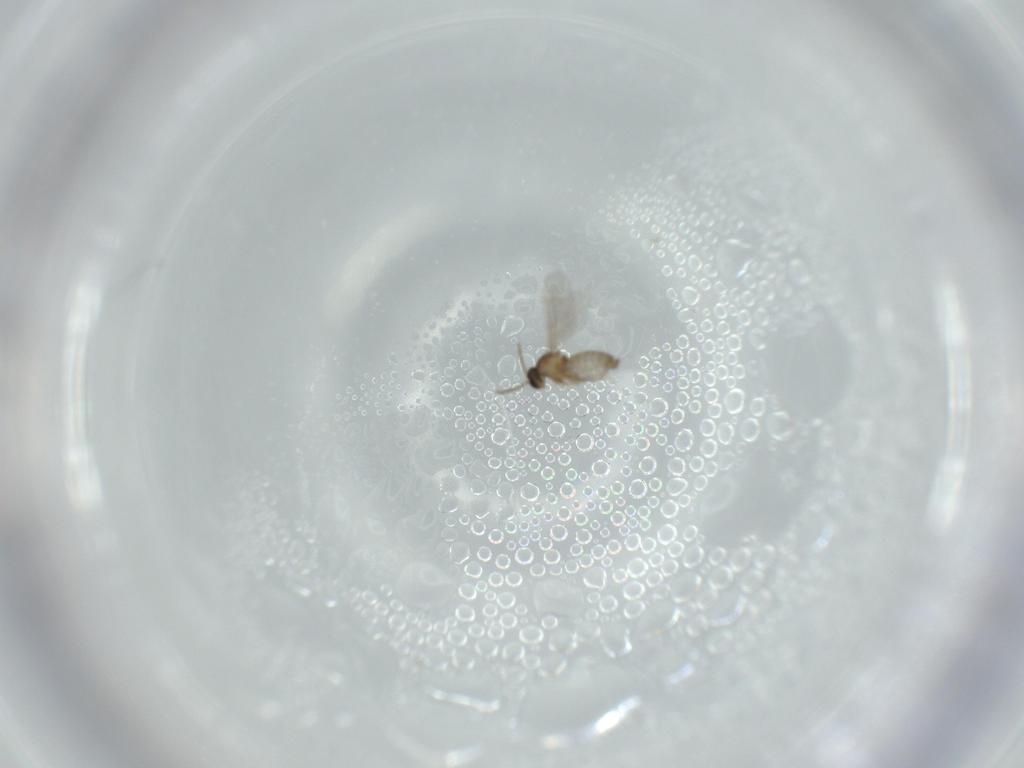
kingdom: Animalia
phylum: Arthropoda
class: Insecta
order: Diptera
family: Cecidomyiidae
